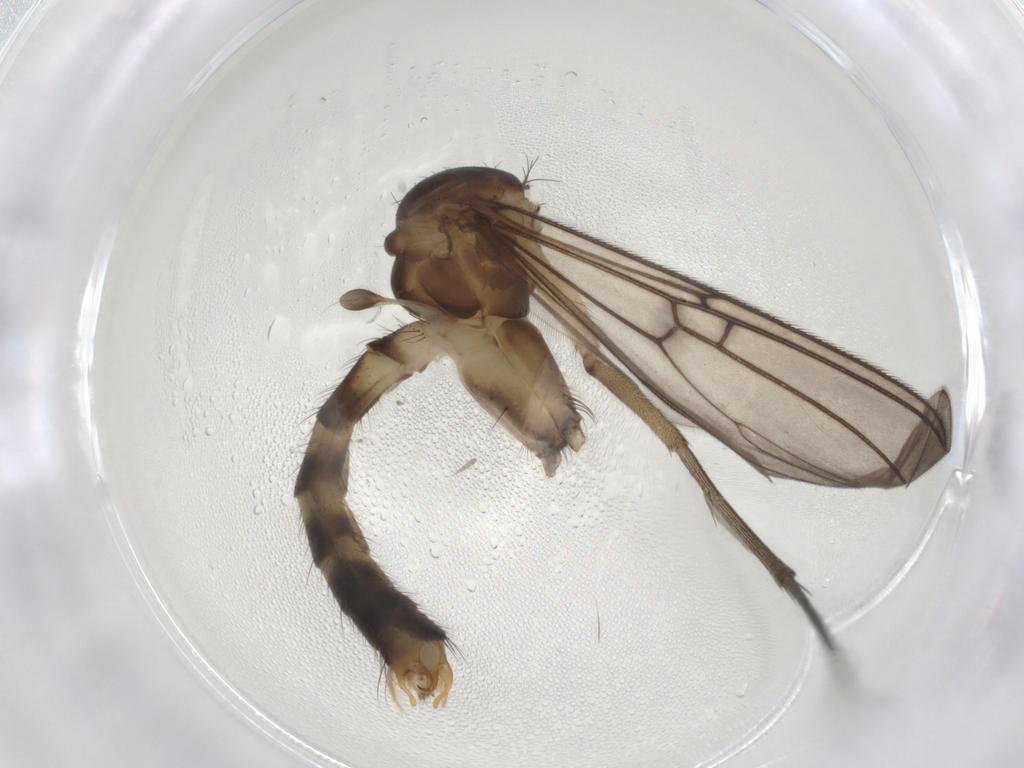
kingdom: Animalia
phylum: Arthropoda
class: Insecta
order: Diptera
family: Mycetophilidae
